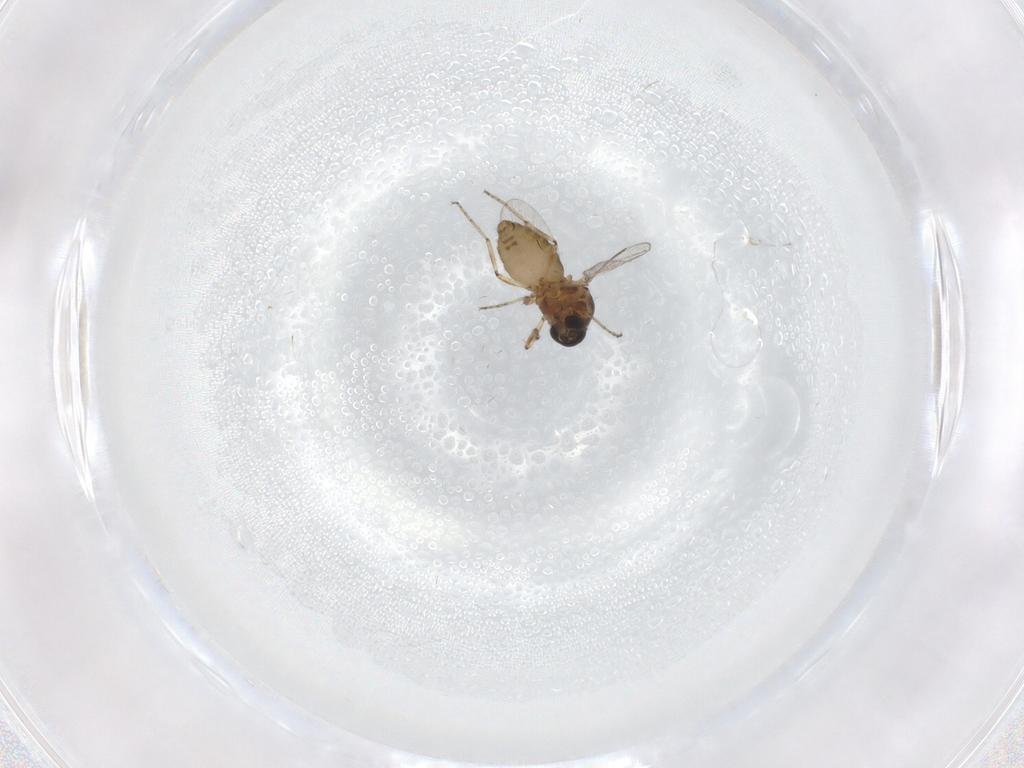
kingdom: Animalia
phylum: Arthropoda
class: Insecta
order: Diptera
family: Ceratopogonidae
